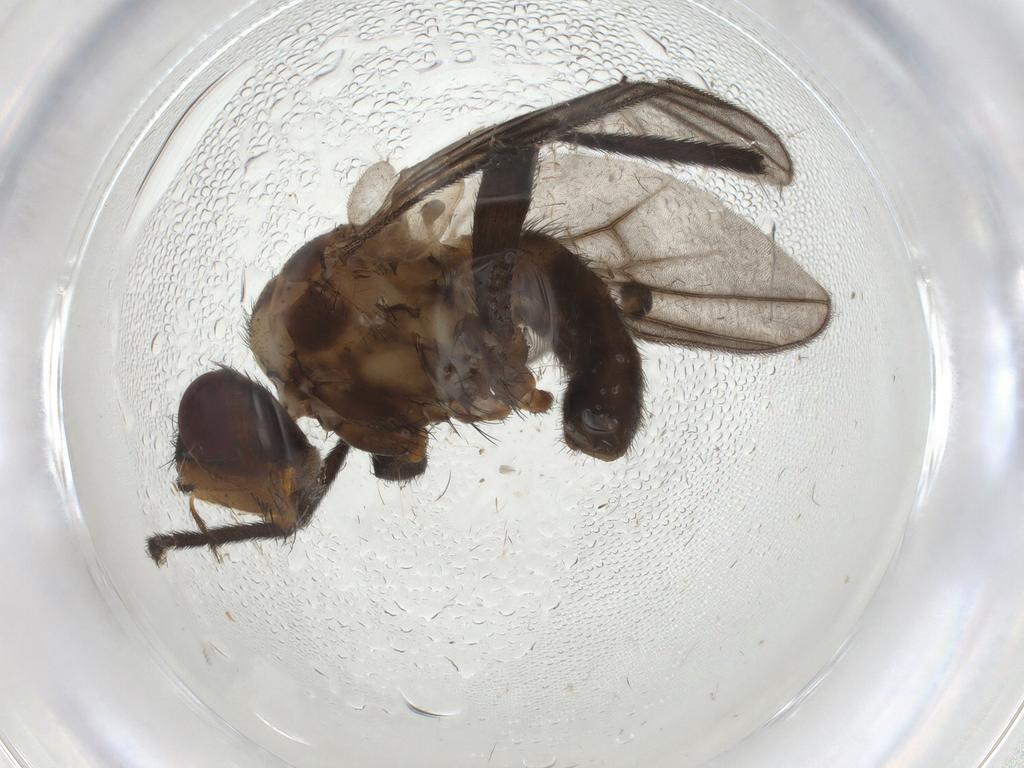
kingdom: Animalia
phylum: Arthropoda
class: Insecta
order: Diptera
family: Calliphoridae
